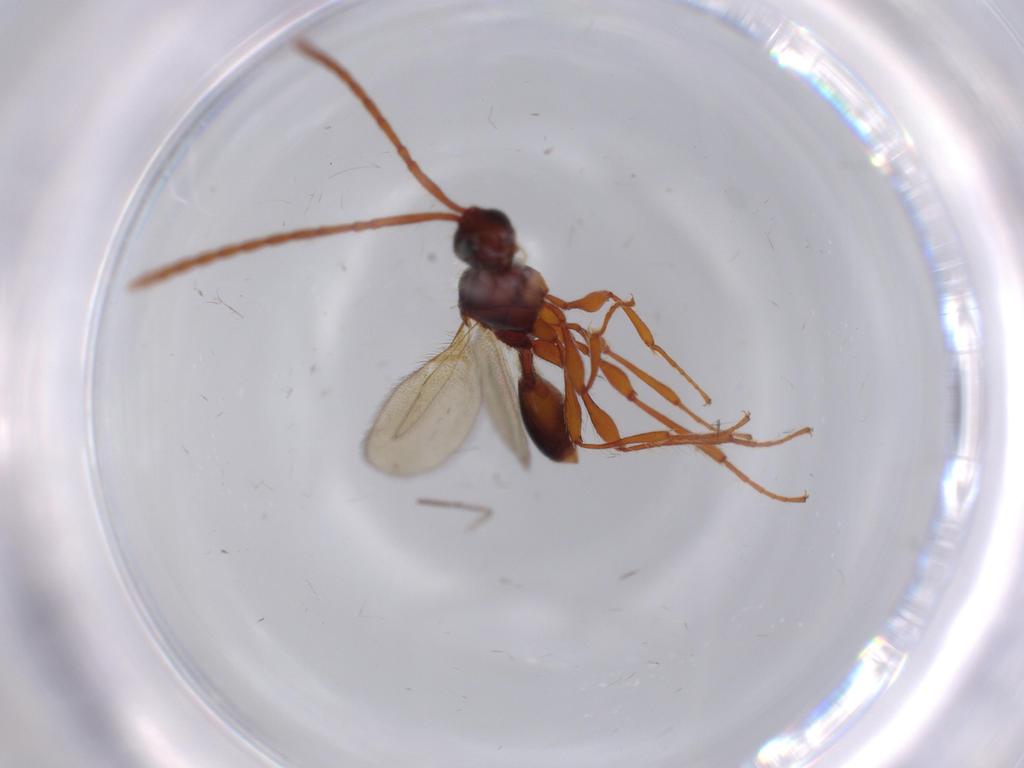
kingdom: Animalia
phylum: Arthropoda
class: Insecta
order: Hymenoptera
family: Diapriidae
